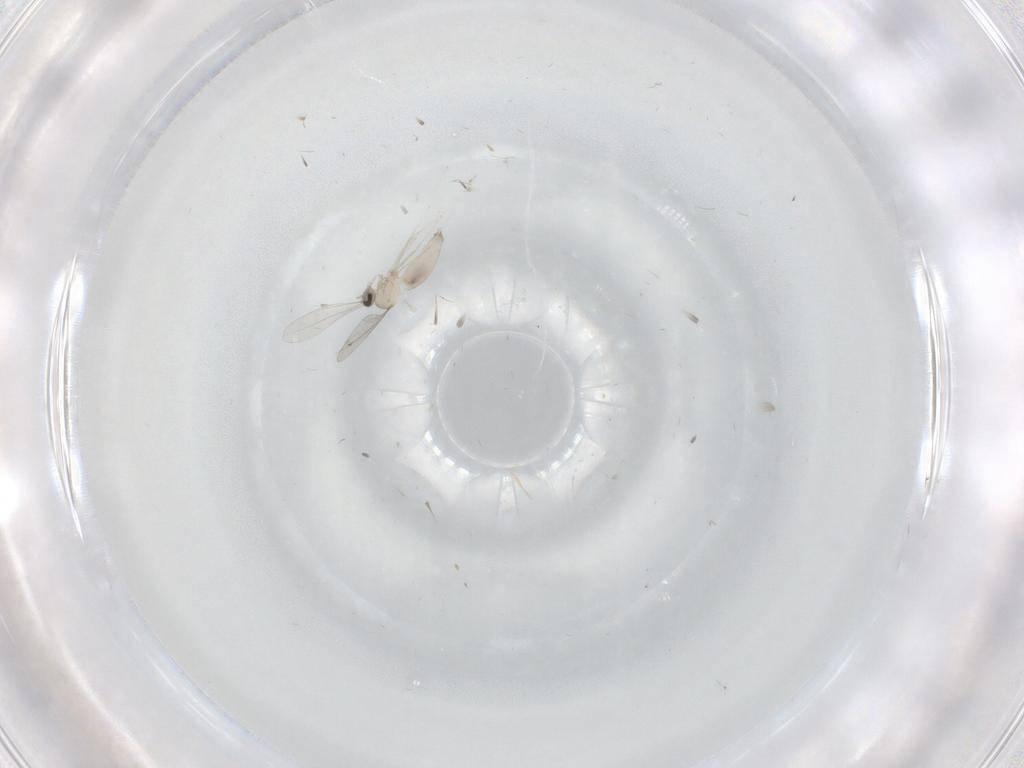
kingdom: Animalia
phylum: Arthropoda
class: Insecta
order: Diptera
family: Cecidomyiidae
